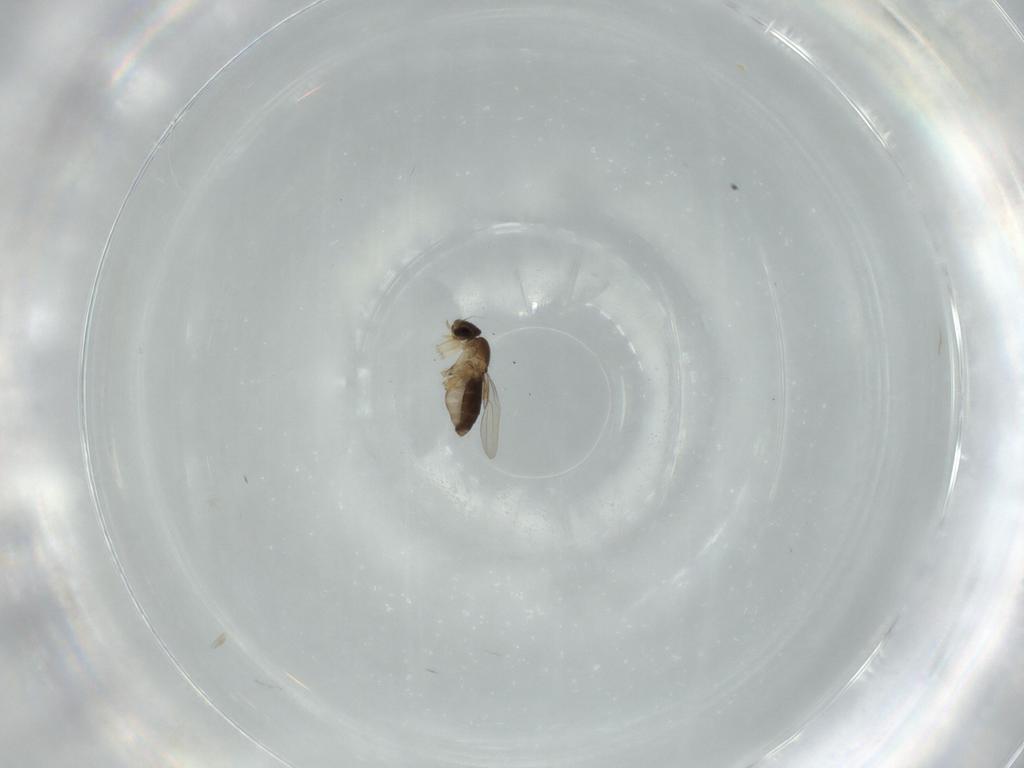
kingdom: Animalia
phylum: Arthropoda
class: Insecta
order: Diptera
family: Phoridae
